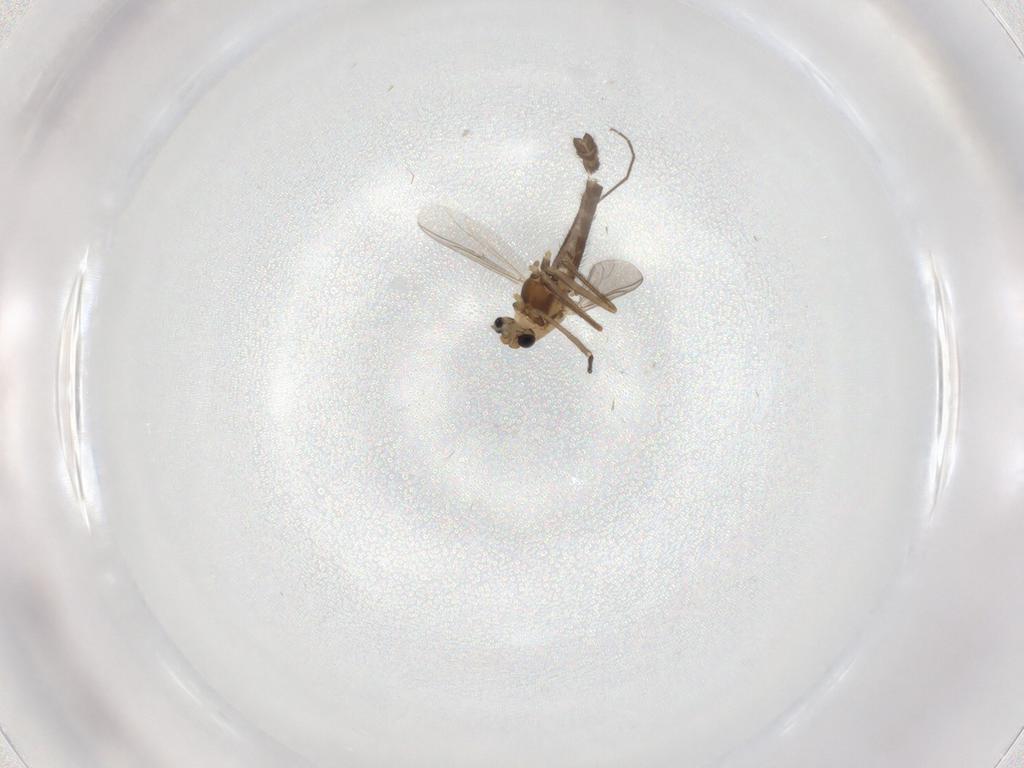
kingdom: Animalia
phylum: Arthropoda
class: Insecta
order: Diptera
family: Chironomidae
